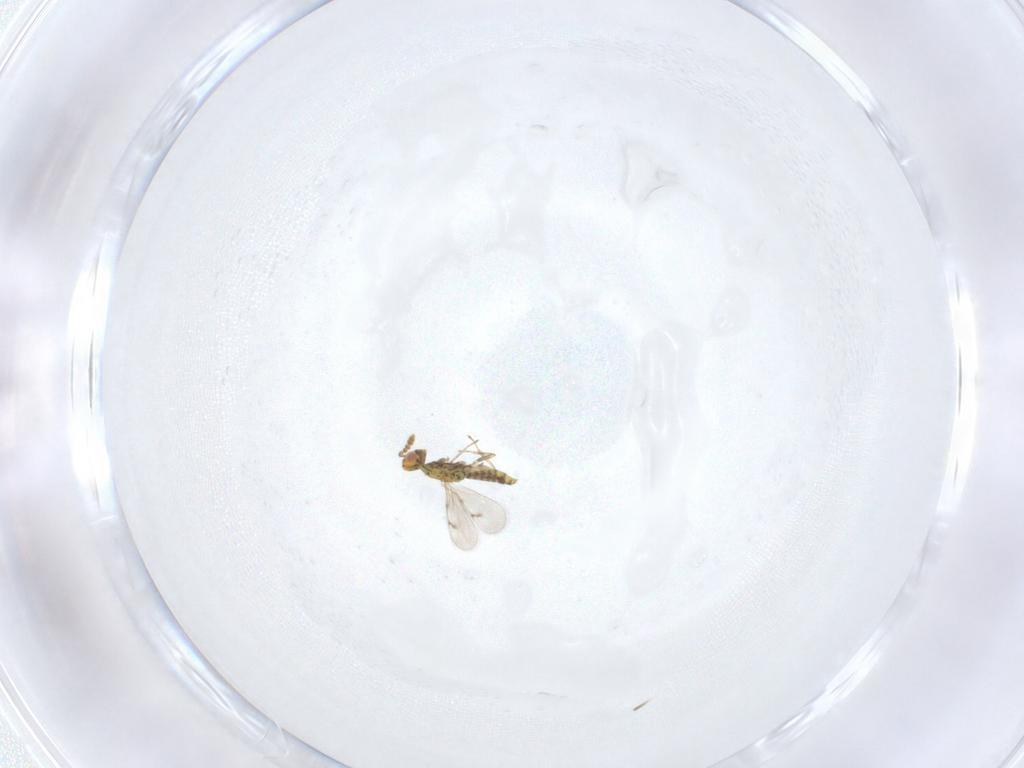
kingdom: Animalia
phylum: Arthropoda
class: Insecta
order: Hymenoptera
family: Eulophidae
